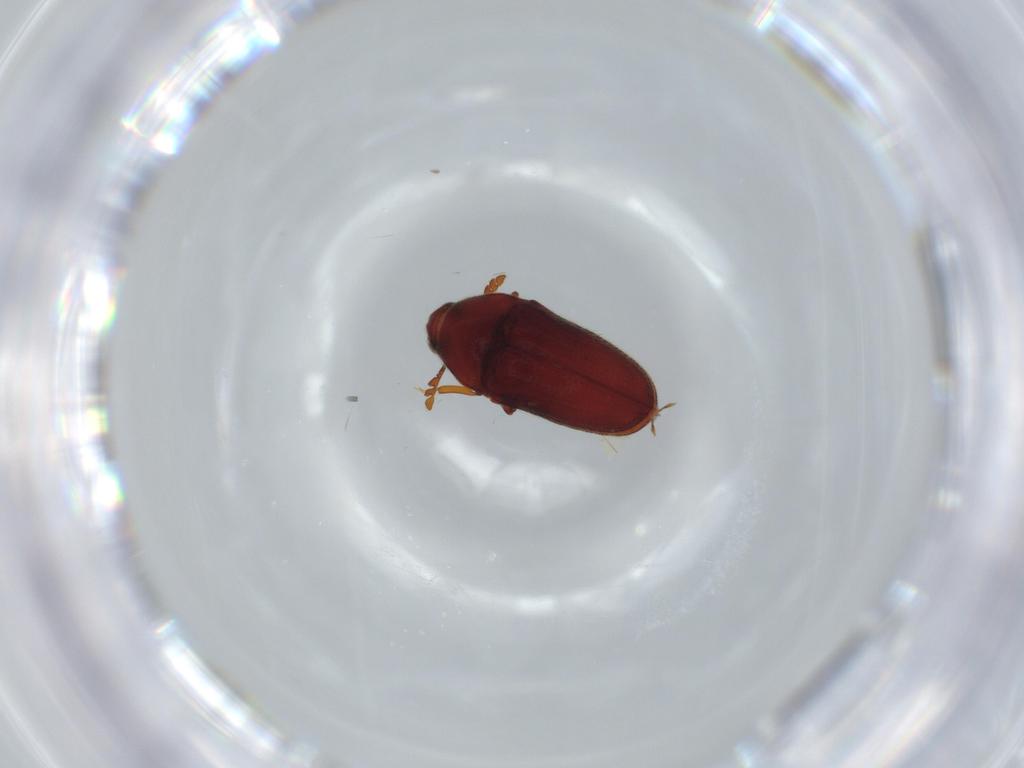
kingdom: Animalia
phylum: Arthropoda
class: Insecta
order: Coleoptera
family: Throscidae
